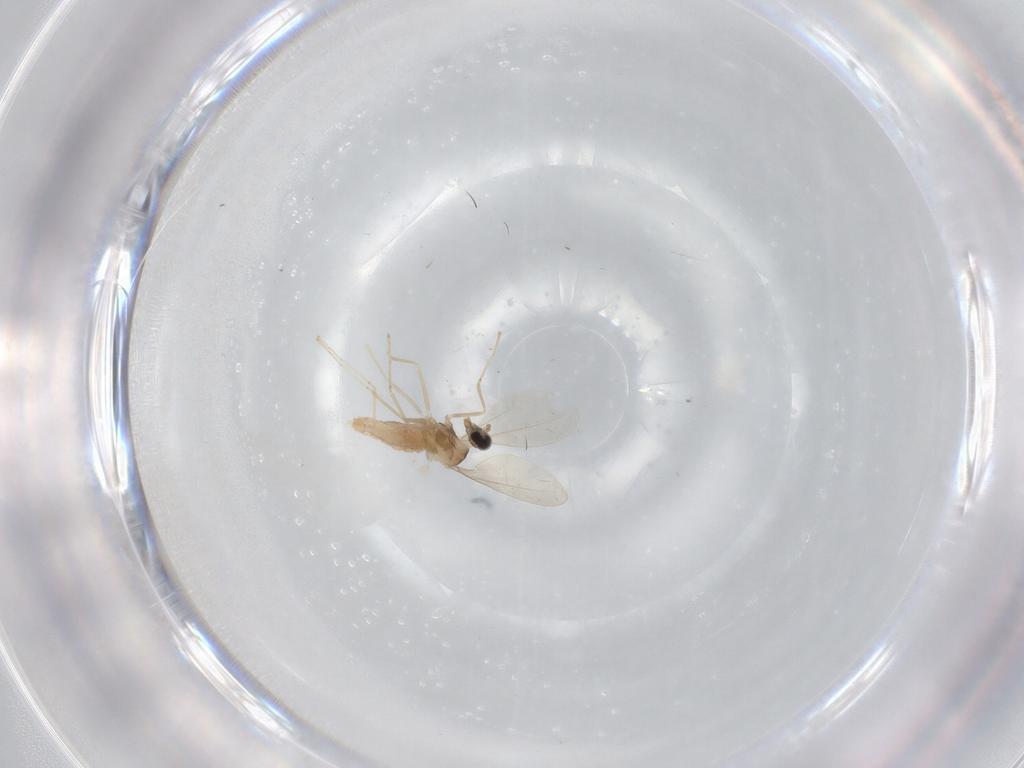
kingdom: Animalia
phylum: Arthropoda
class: Insecta
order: Diptera
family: Cecidomyiidae
